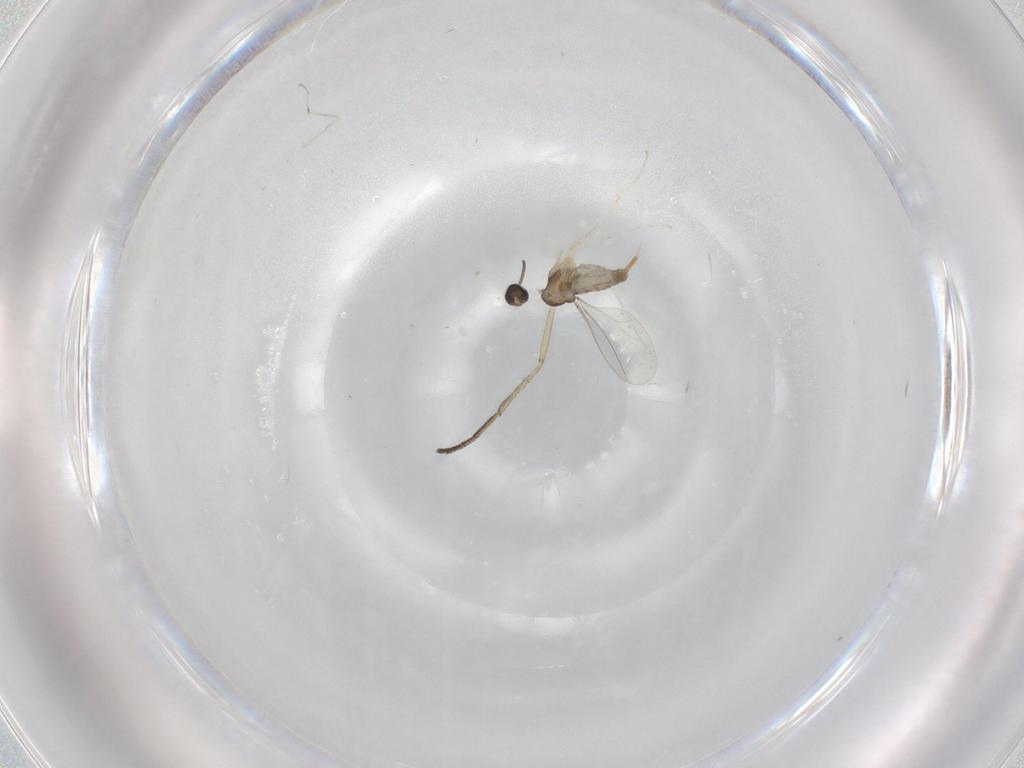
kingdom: Animalia
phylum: Arthropoda
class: Insecta
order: Diptera
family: Cecidomyiidae
